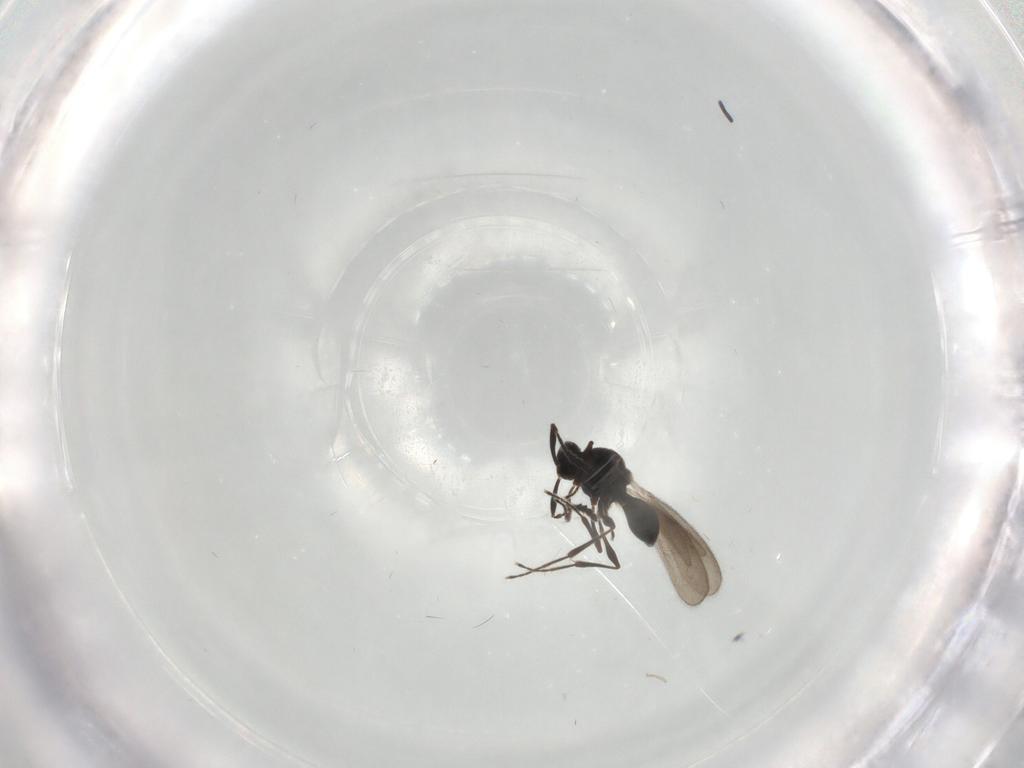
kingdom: Animalia
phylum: Arthropoda
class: Insecta
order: Hymenoptera
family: Platygastridae
